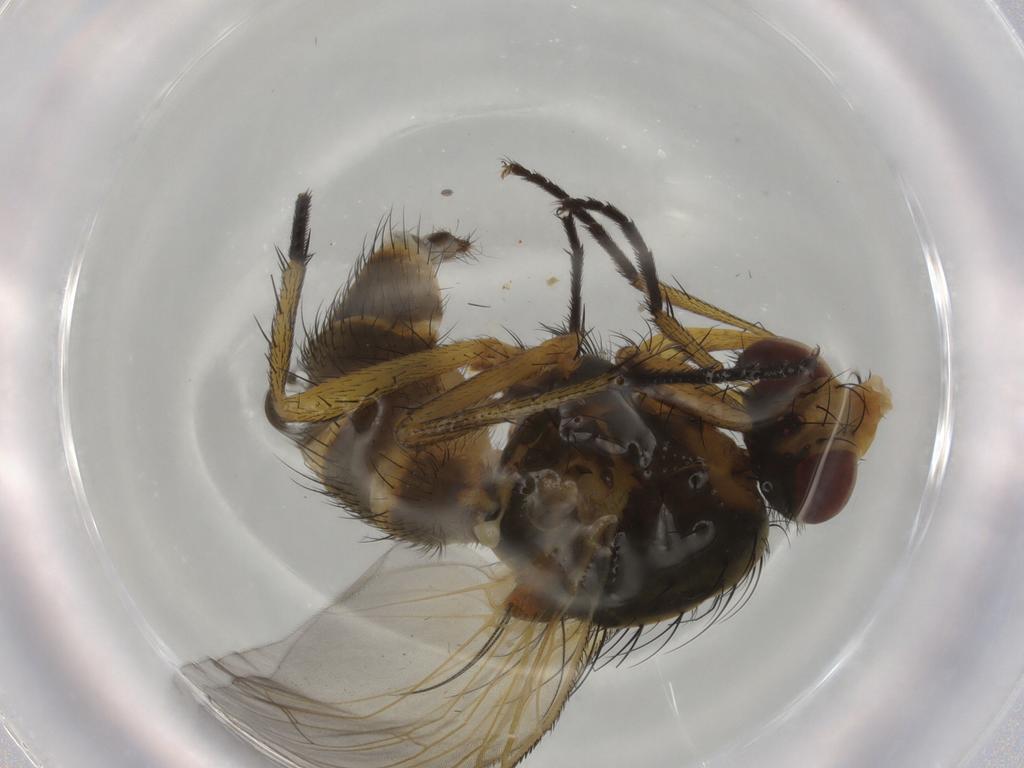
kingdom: Animalia
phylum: Arthropoda
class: Insecta
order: Diptera
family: Anthomyiidae
